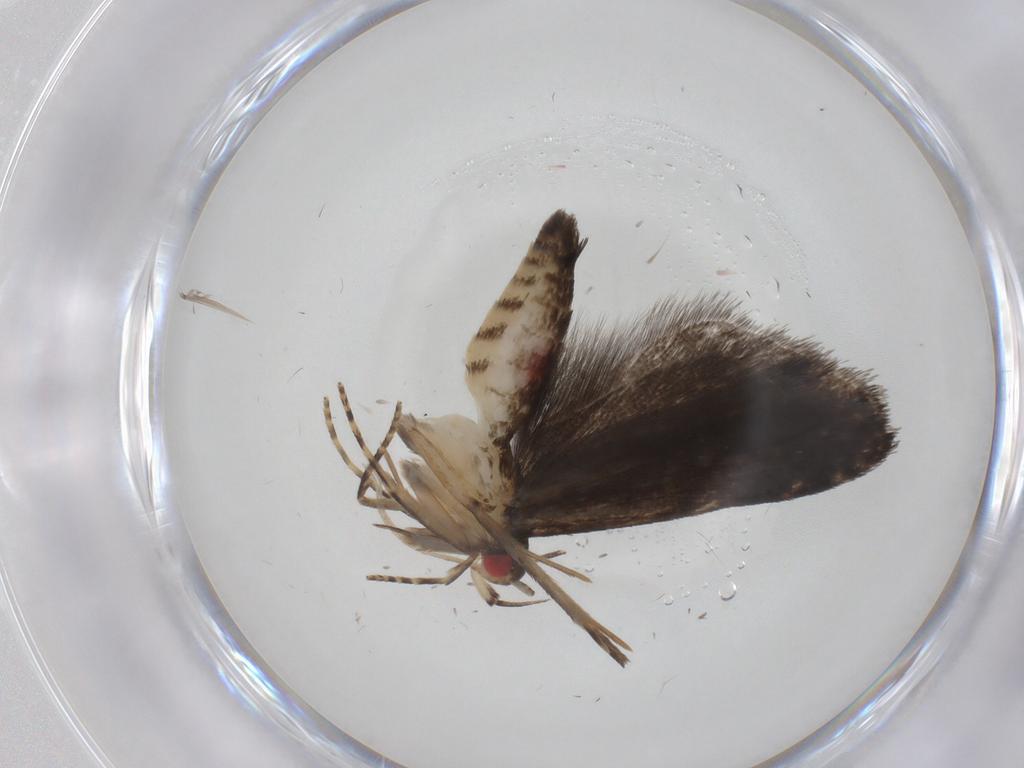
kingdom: Animalia
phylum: Arthropoda
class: Insecta
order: Lepidoptera
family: Gelechiidae
